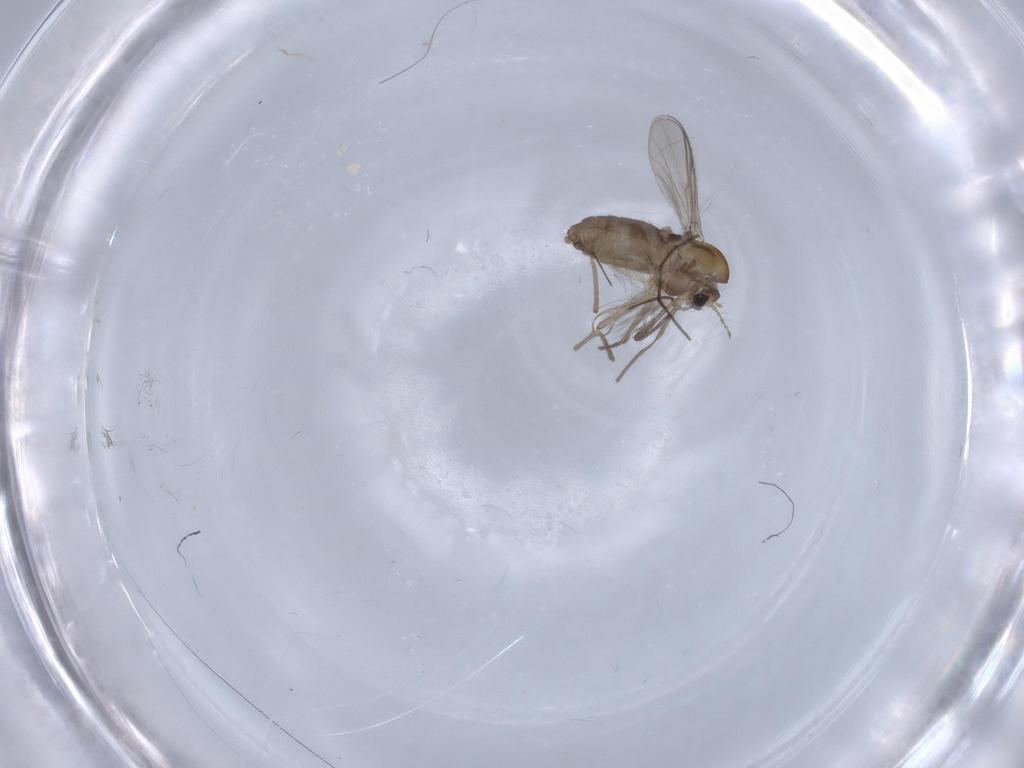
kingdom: Animalia
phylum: Arthropoda
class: Insecta
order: Diptera
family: Chironomidae
